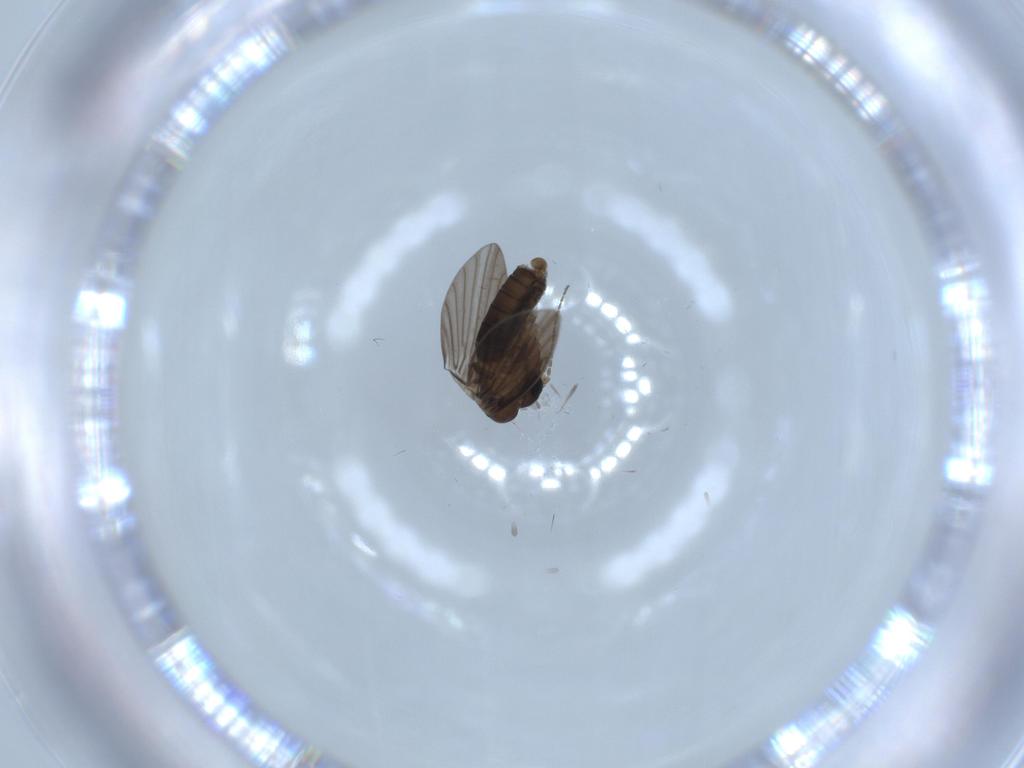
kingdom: Animalia
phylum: Arthropoda
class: Insecta
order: Diptera
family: Psychodidae
